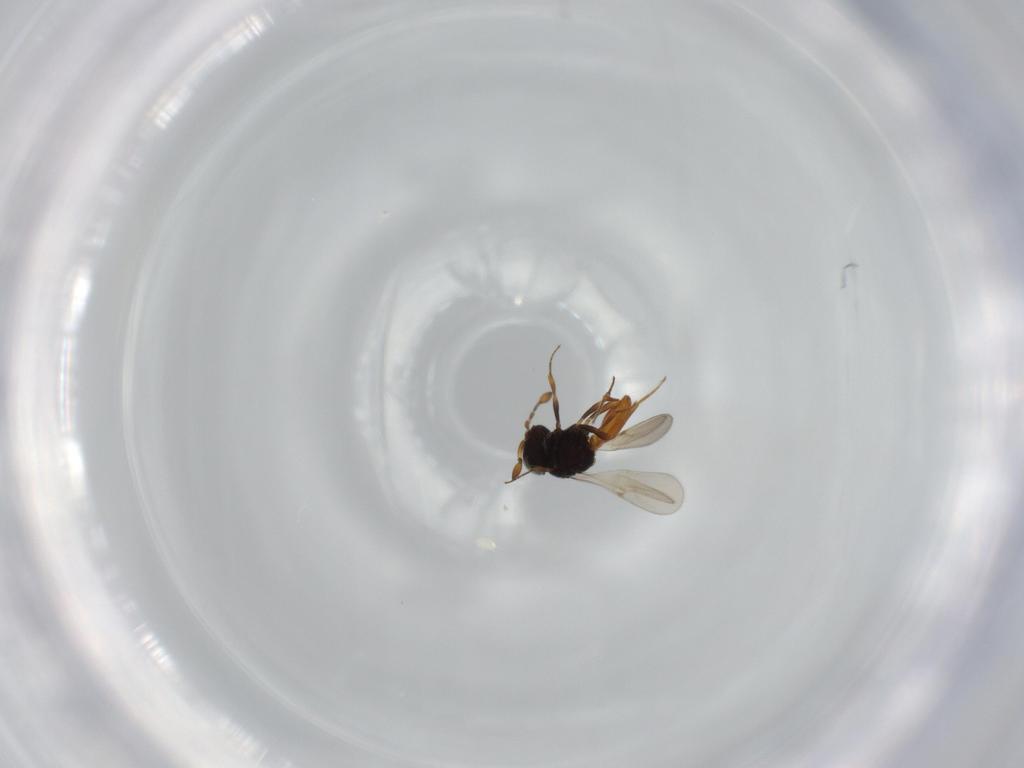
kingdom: Animalia
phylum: Arthropoda
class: Insecta
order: Hymenoptera
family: Scelionidae
